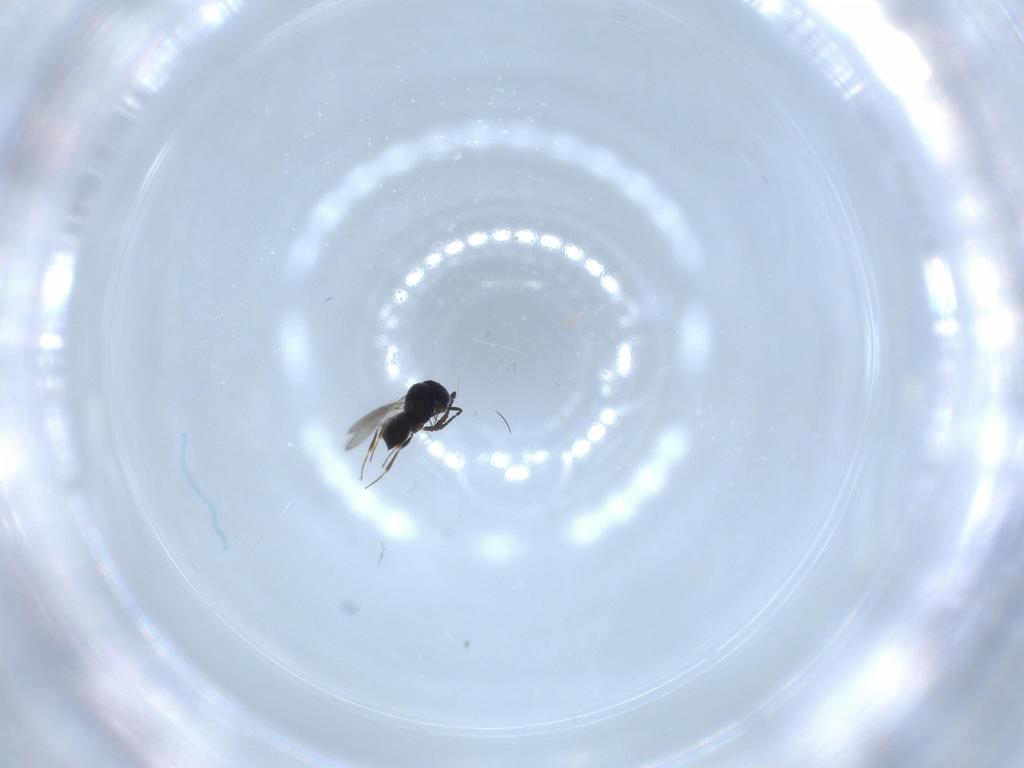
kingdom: Animalia
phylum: Arthropoda
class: Insecta
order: Hymenoptera
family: Scelionidae
